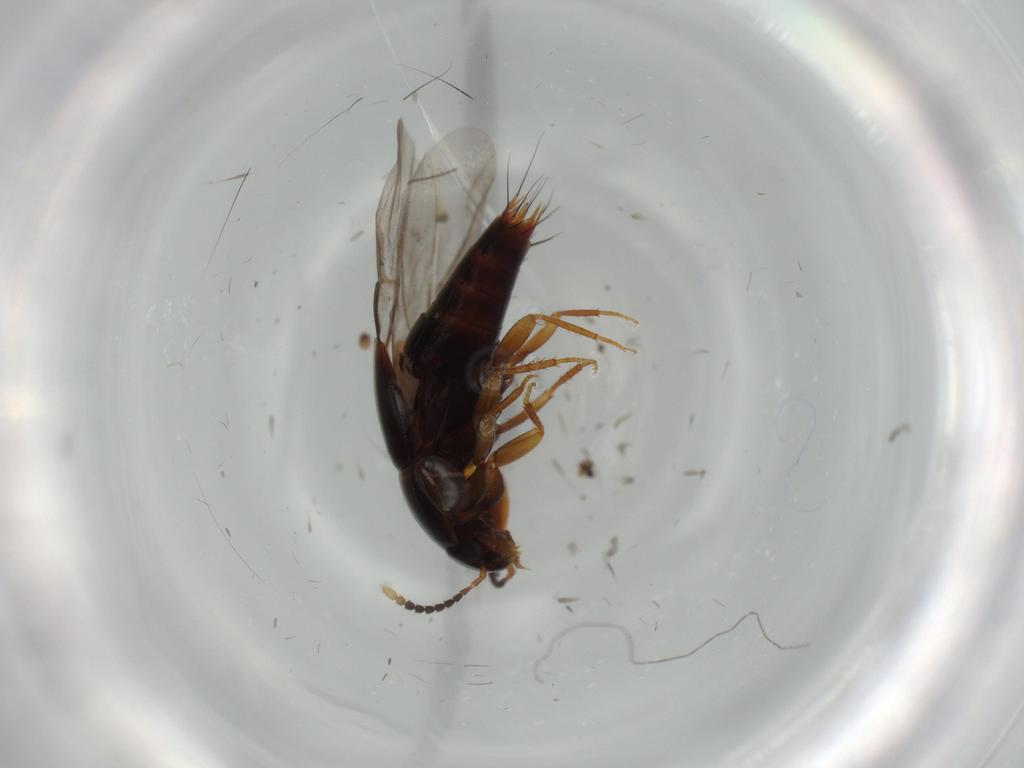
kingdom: Animalia
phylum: Arthropoda
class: Insecta
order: Coleoptera
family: Staphylinidae
